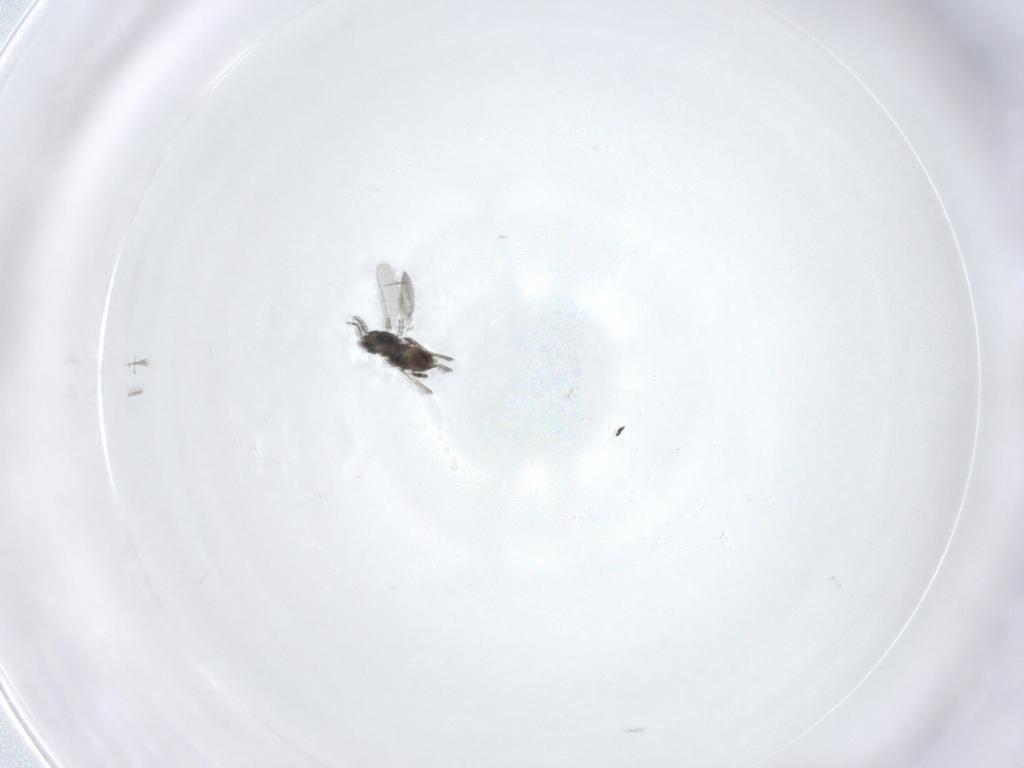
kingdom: Animalia
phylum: Arthropoda
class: Insecta
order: Hymenoptera
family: Mymaridae
